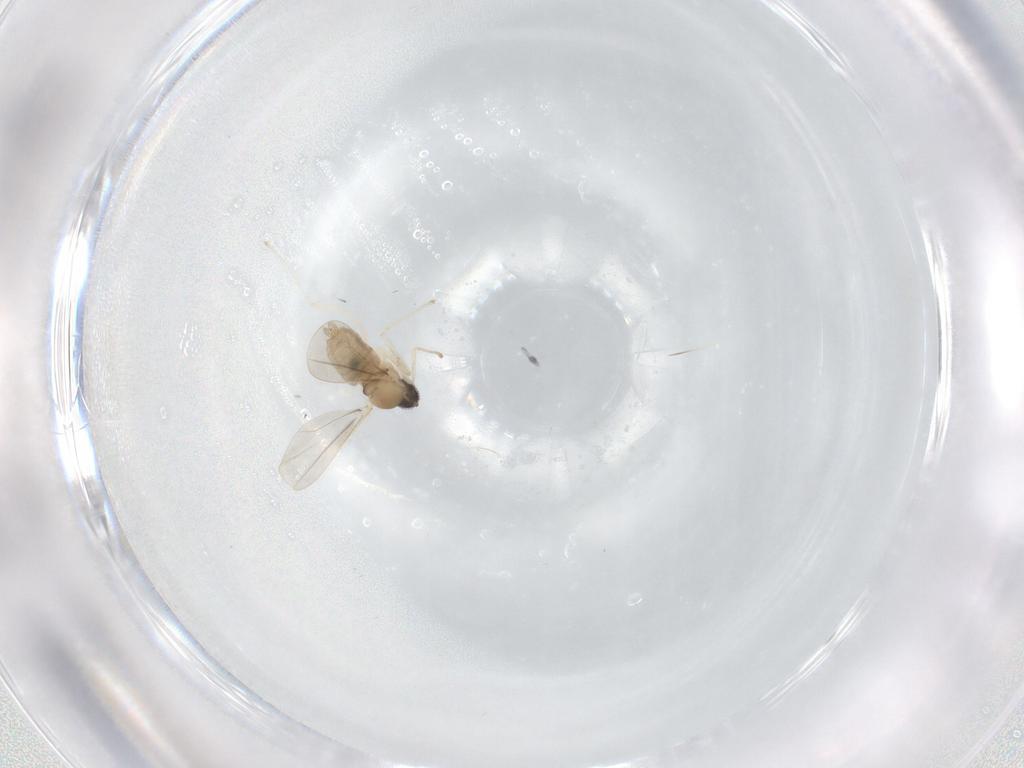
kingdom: Animalia
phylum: Arthropoda
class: Insecta
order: Diptera
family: Cecidomyiidae
